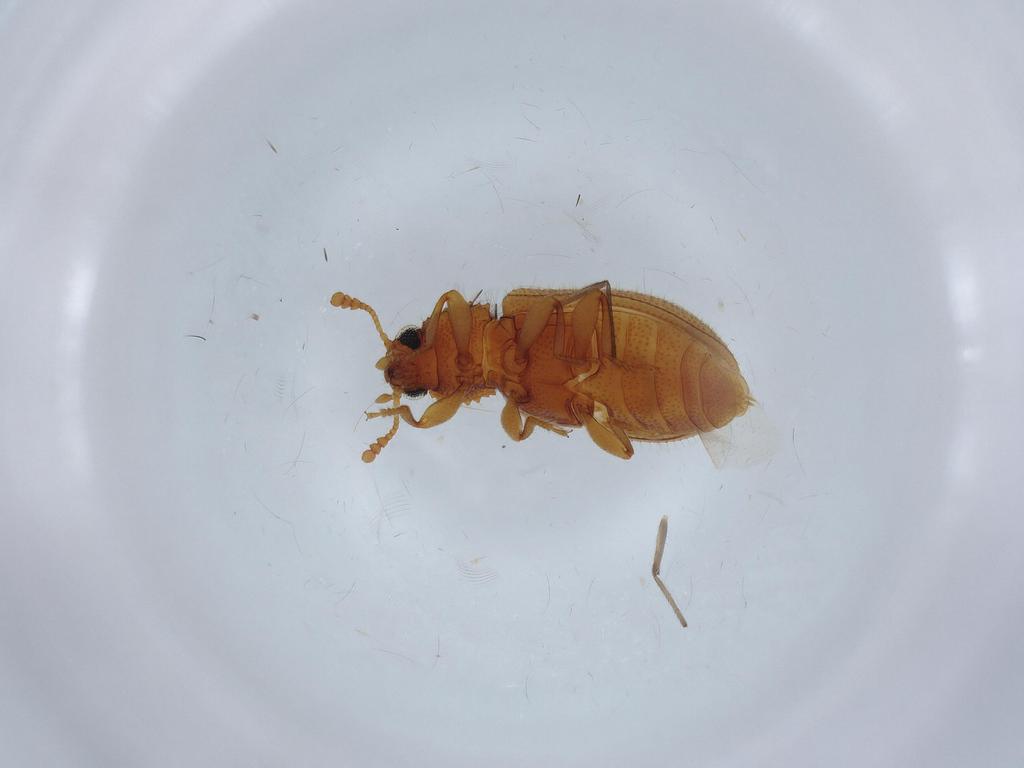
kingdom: Animalia
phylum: Arthropoda
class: Insecta
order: Coleoptera
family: Tenebrionidae
